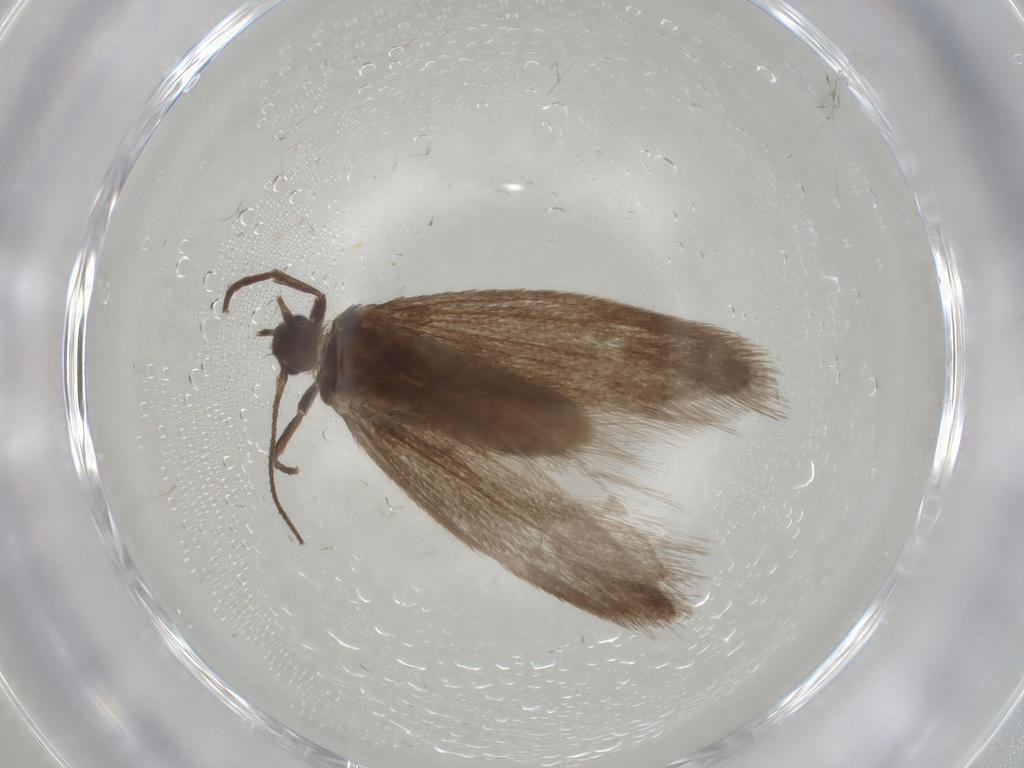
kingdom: Animalia
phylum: Arthropoda
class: Insecta
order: Lepidoptera
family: Limacodidae
